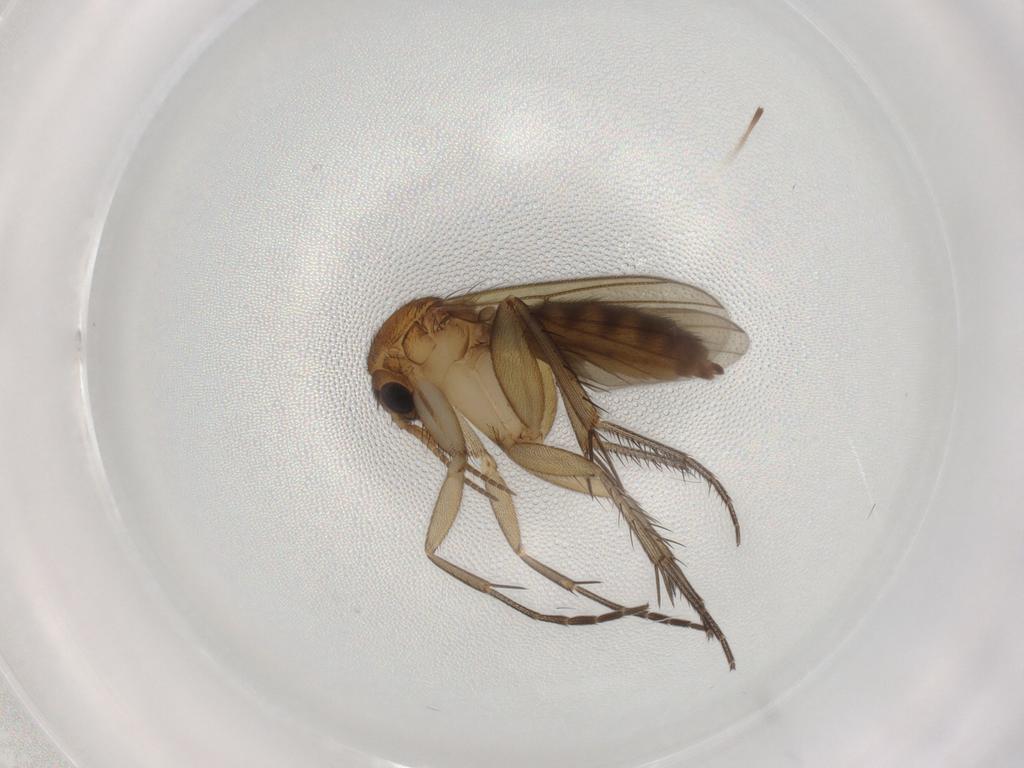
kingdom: Animalia
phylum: Arthropoda
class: Insecta
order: Diptera
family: Mycetophilidae
